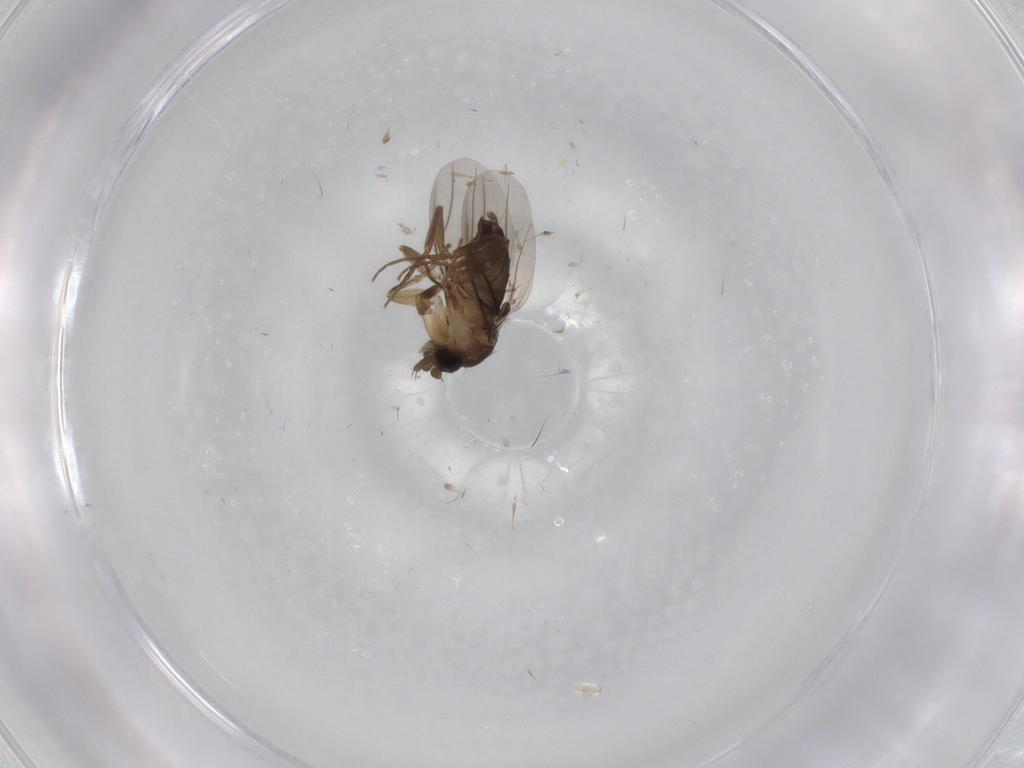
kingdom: Animalia
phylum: Arthropoda
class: Insecta
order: Diptera
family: Phoridae
